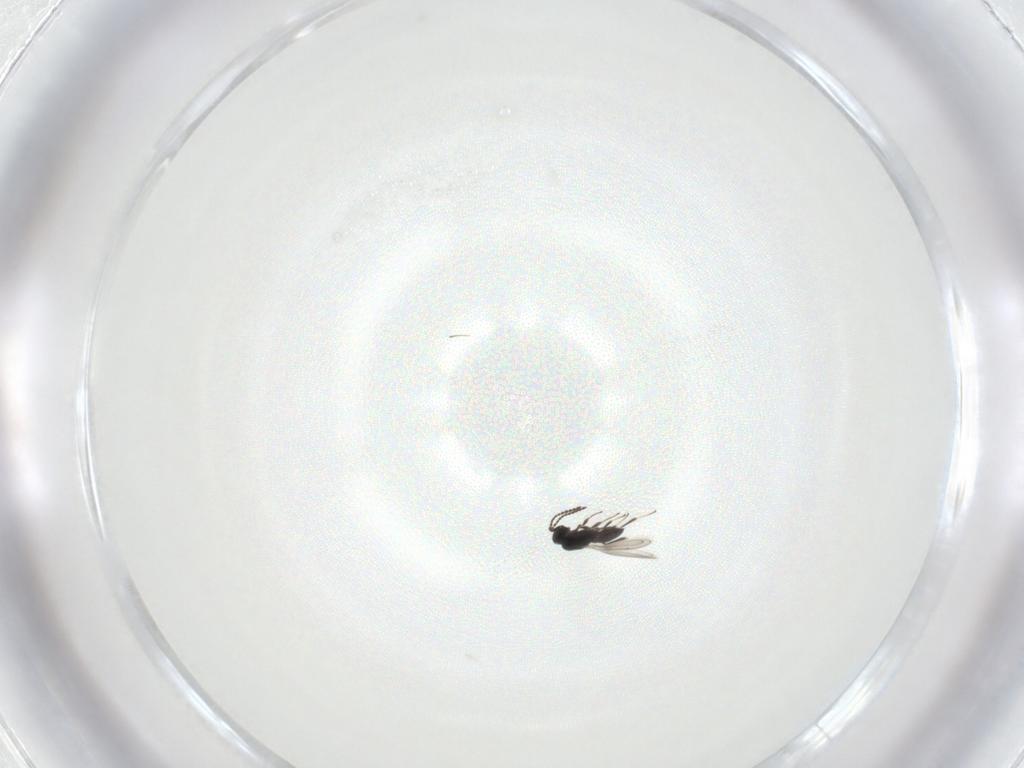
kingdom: Animalia
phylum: Arthropoda
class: Insecta
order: Hymenoptera
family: Scelionidae
